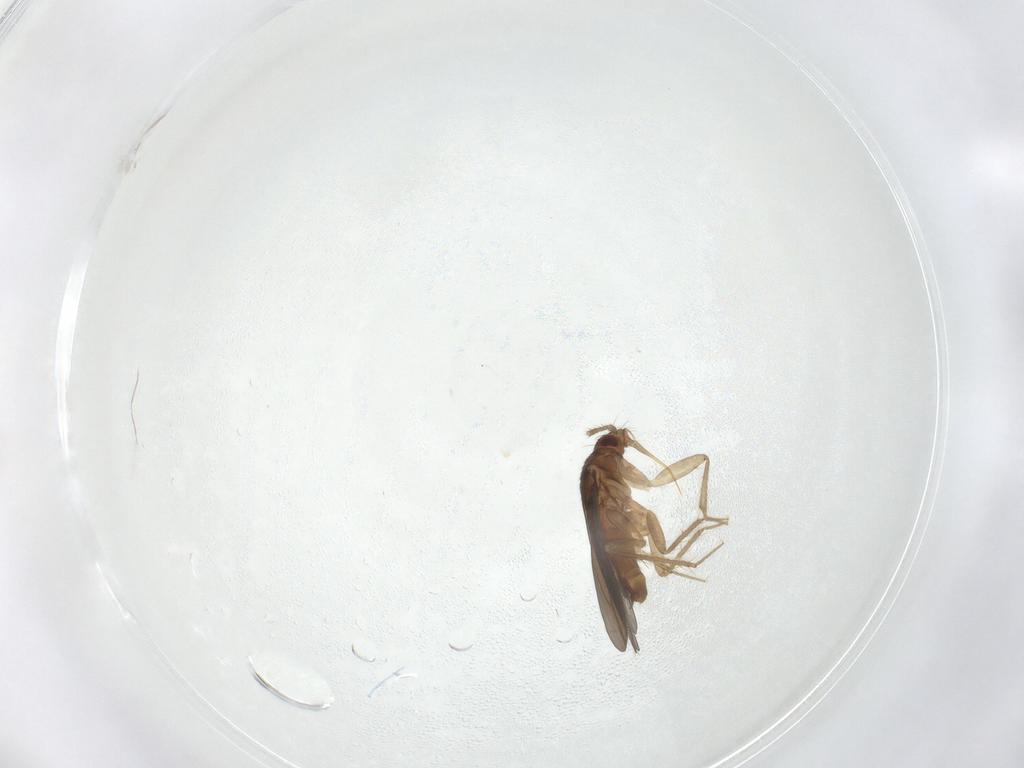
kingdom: Animalia
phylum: Arthropoda
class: Insecta
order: Hemiptera
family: Ceratocombidae
